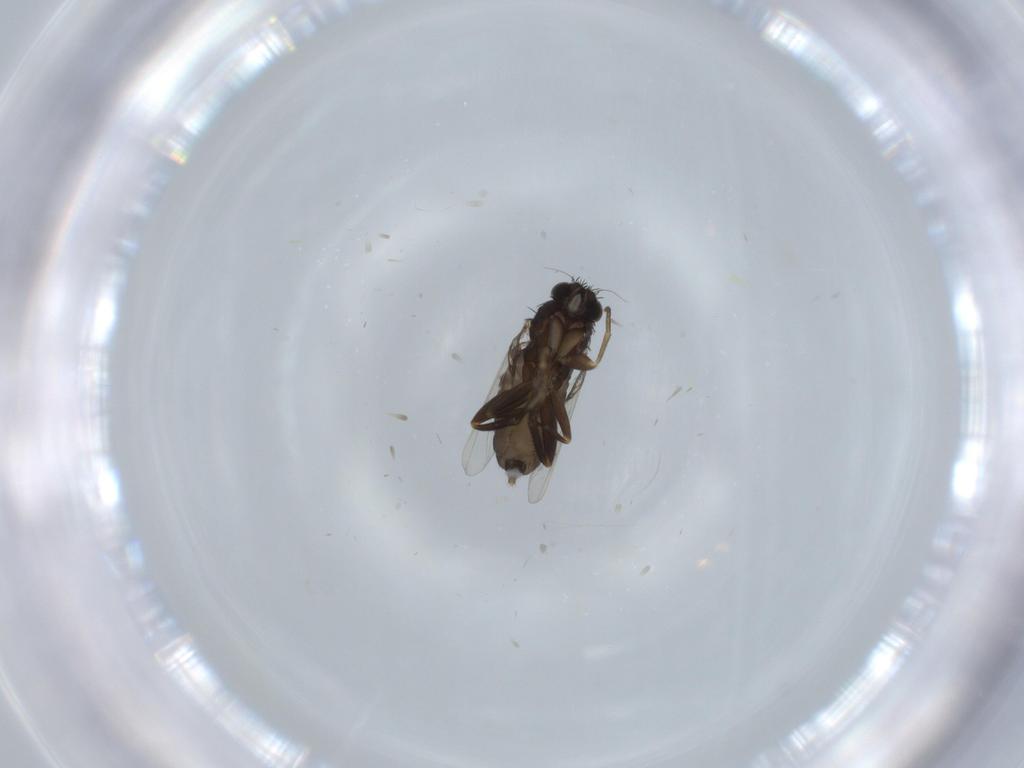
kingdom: Animalia
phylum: Arthropoda
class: Insecta
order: Diptera
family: Phoridae
